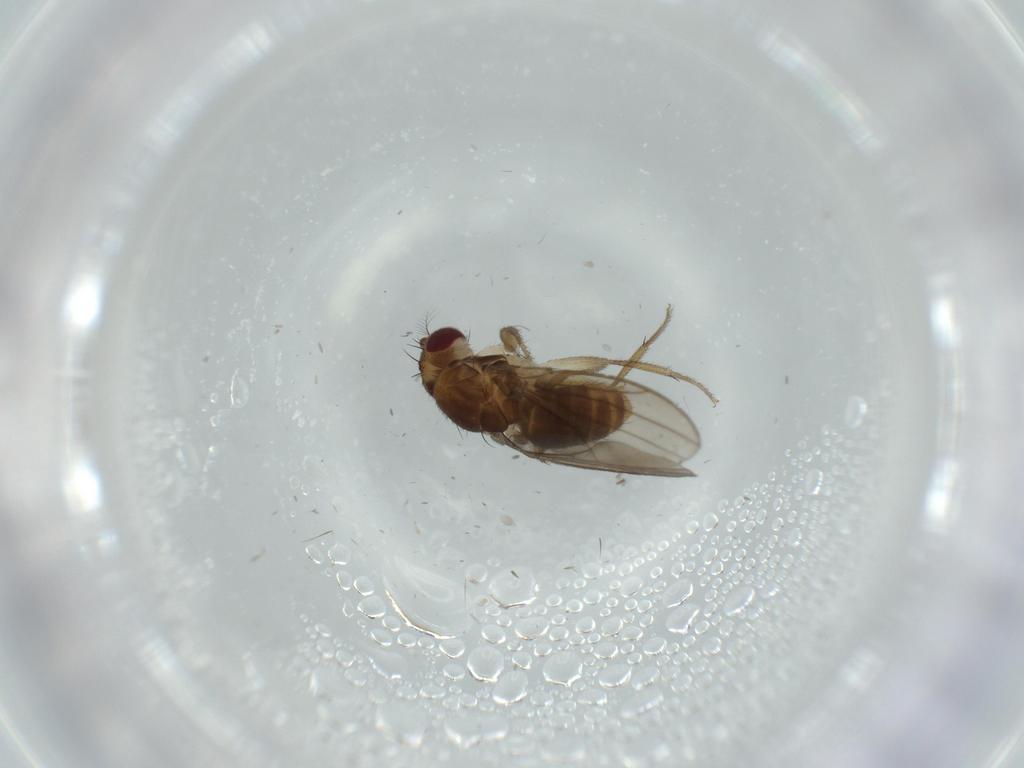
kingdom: Animalia
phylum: Arthropoda
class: Insecta
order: Diptera
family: Drosophilidae
